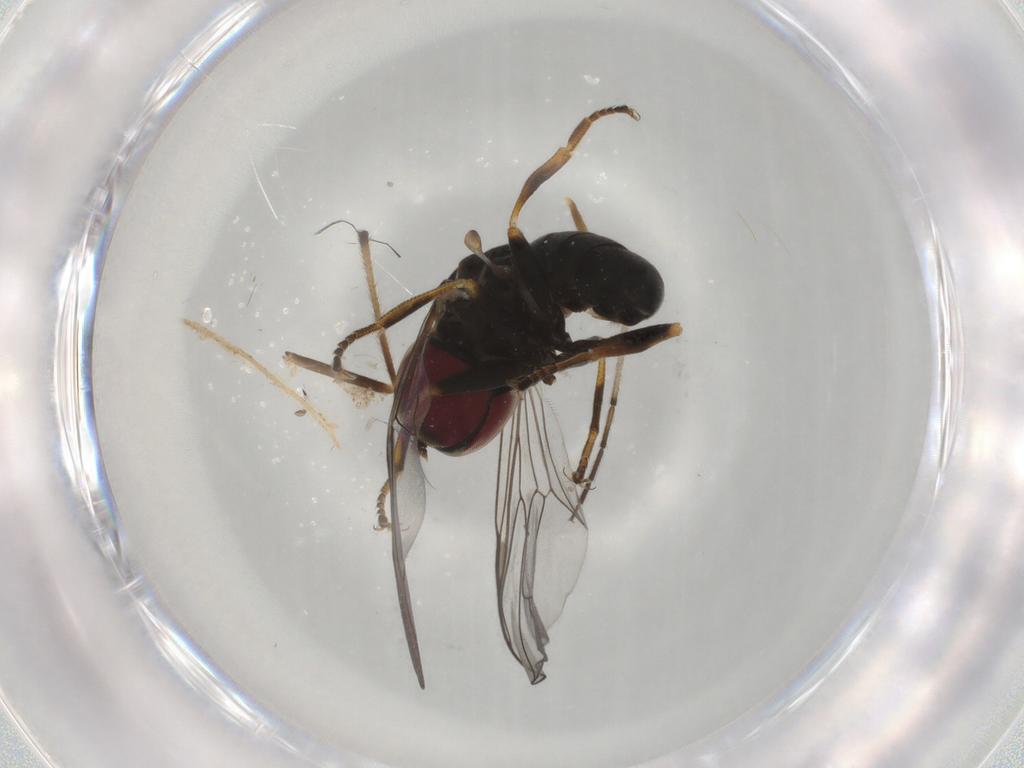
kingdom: Animalia
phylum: Arthropoda
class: Insecta
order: Diptera
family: Pipunculidae
